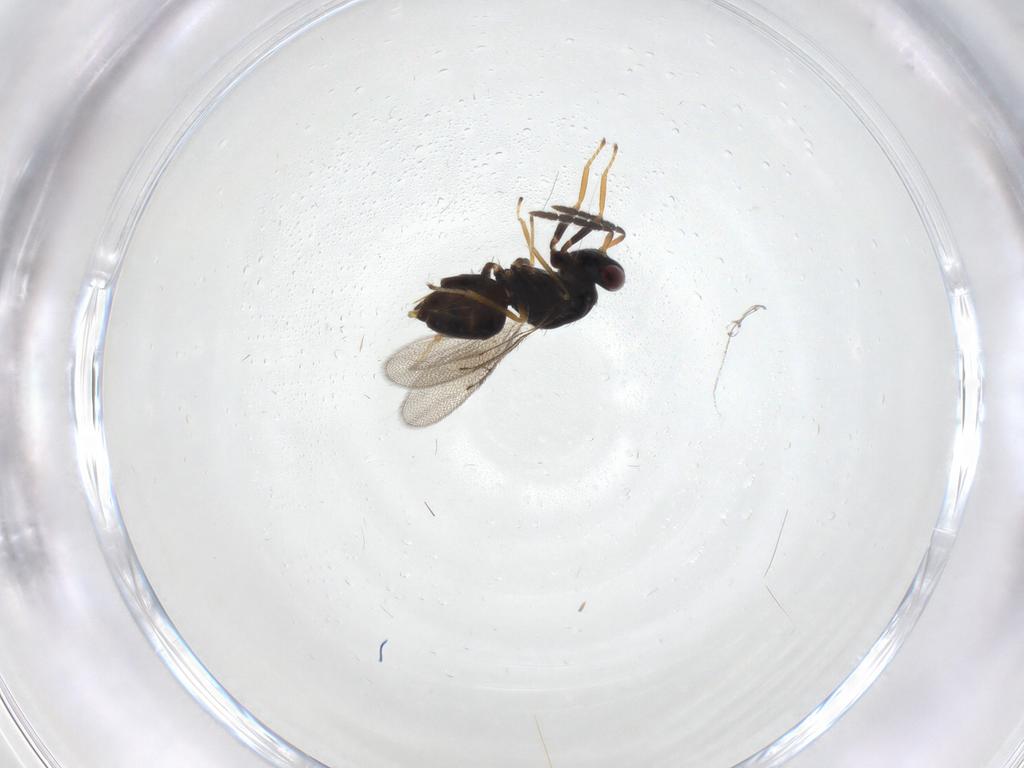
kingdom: Animalia
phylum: Arthropoda
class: Insecta
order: Hymenoptera
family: Eulophidae
